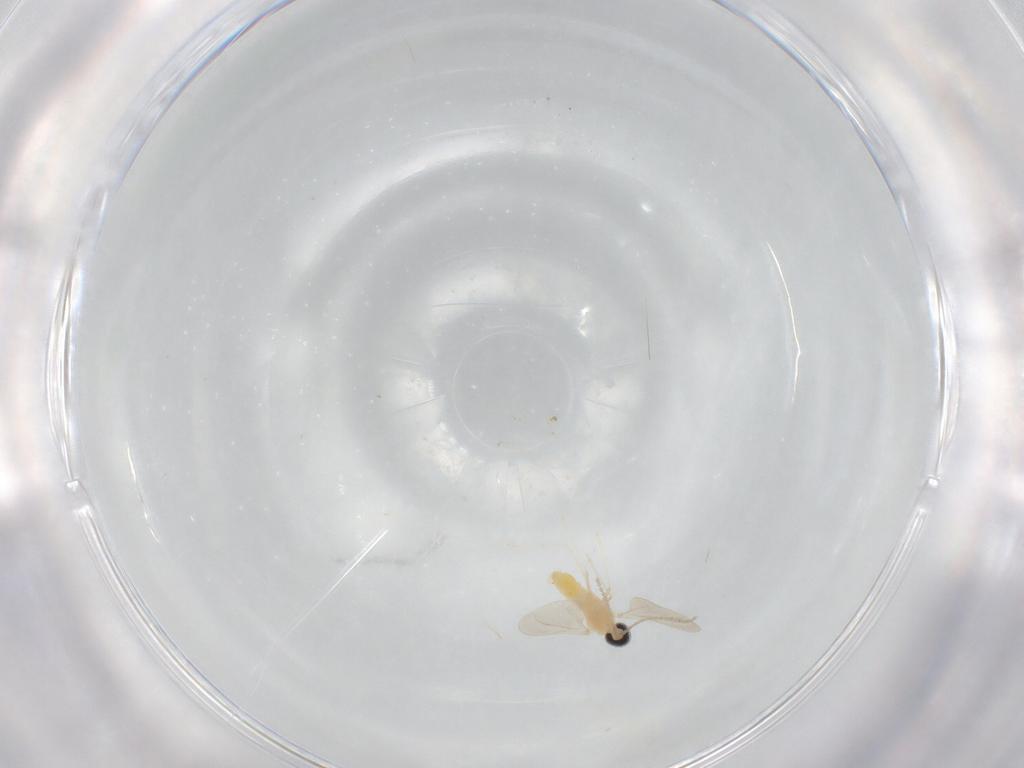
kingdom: Animalia
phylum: Arthropoda
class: Insecta
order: Diptera
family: Cecidomyiidae
